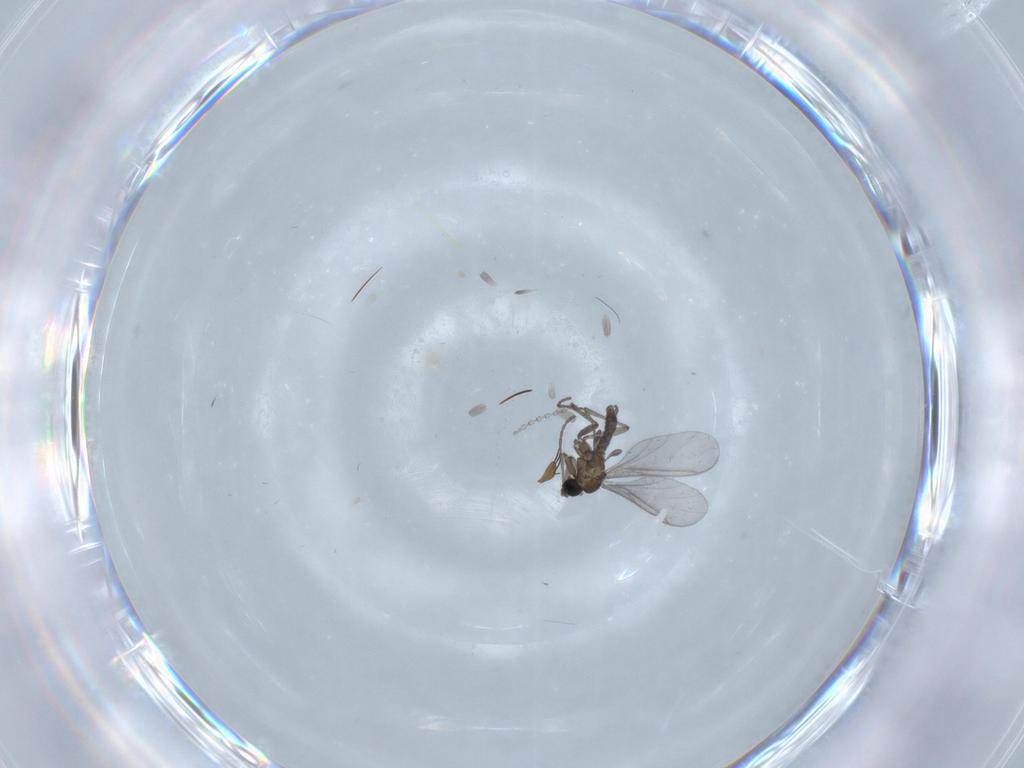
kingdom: Animalia
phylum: Arthropoda
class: Insecta
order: Diptera
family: Sciaridae
